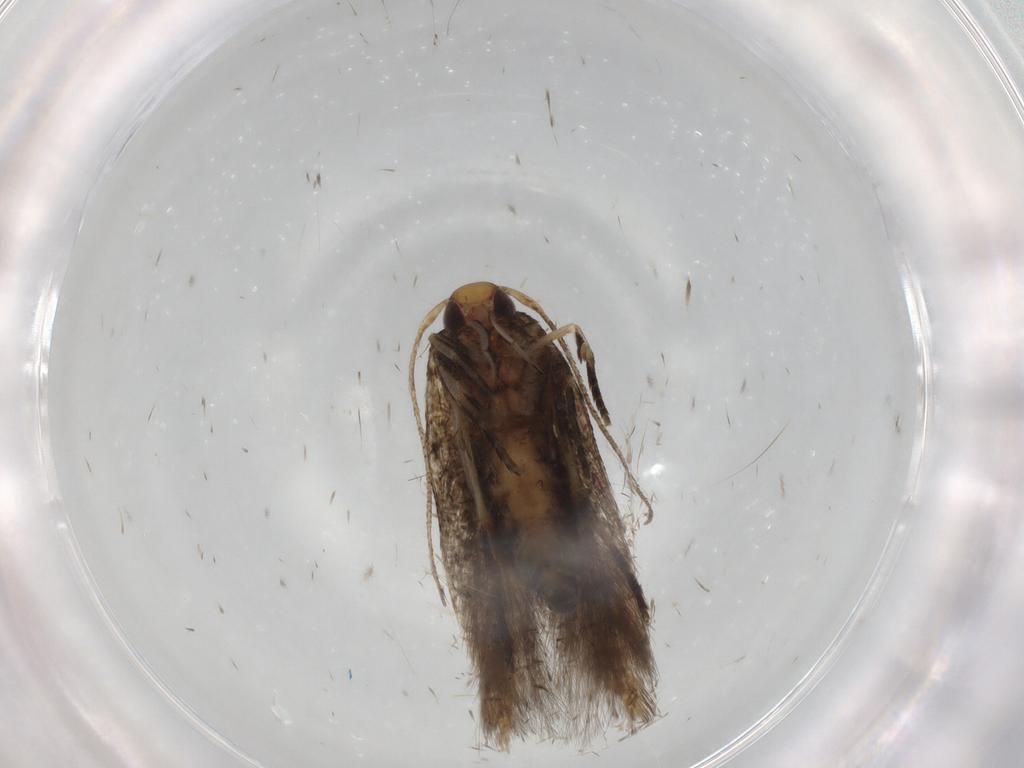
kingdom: Animalia
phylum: Arthropoda
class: Insecta
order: Lepidoptera
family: Cosmopterigidae
